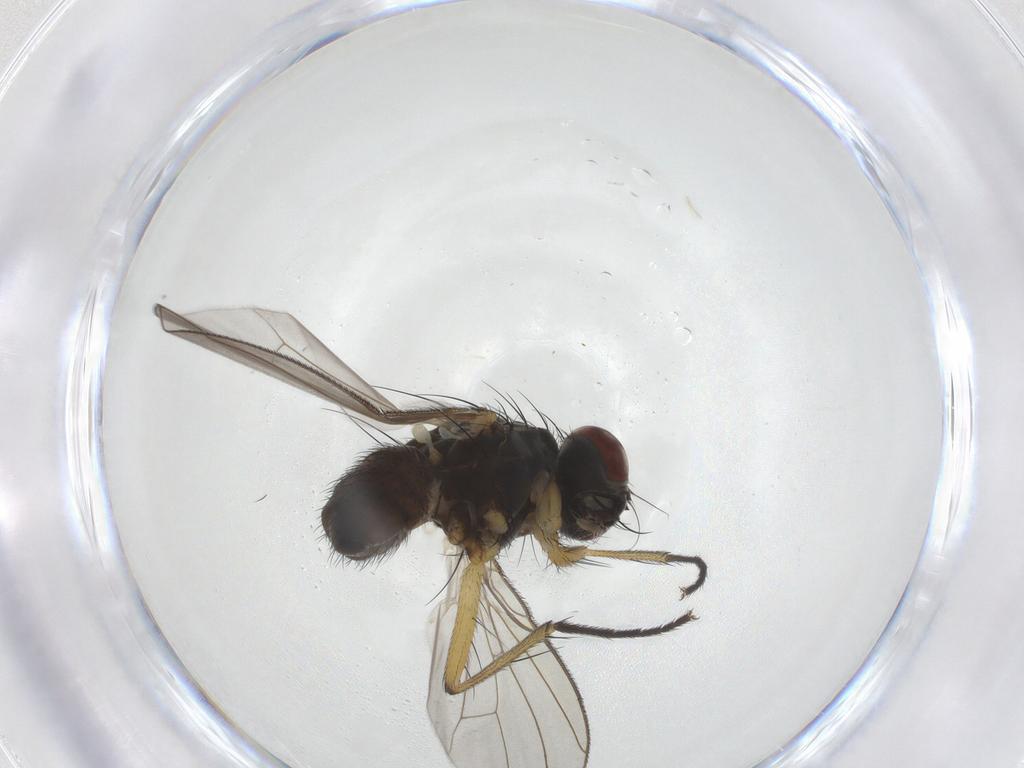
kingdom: Animalia
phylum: Arthropoda
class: Insecta
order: Diptera
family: Muscidae
